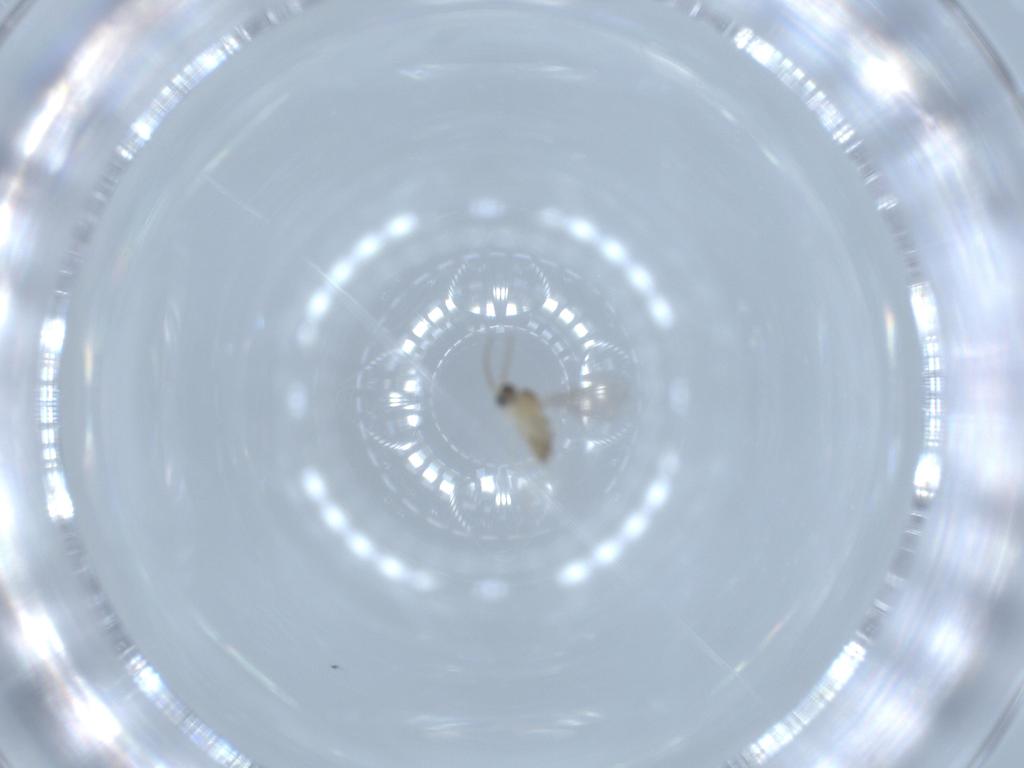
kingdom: Animalia
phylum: Arthropoda
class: Insecta
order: Diptera
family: Cecidomyiidae
